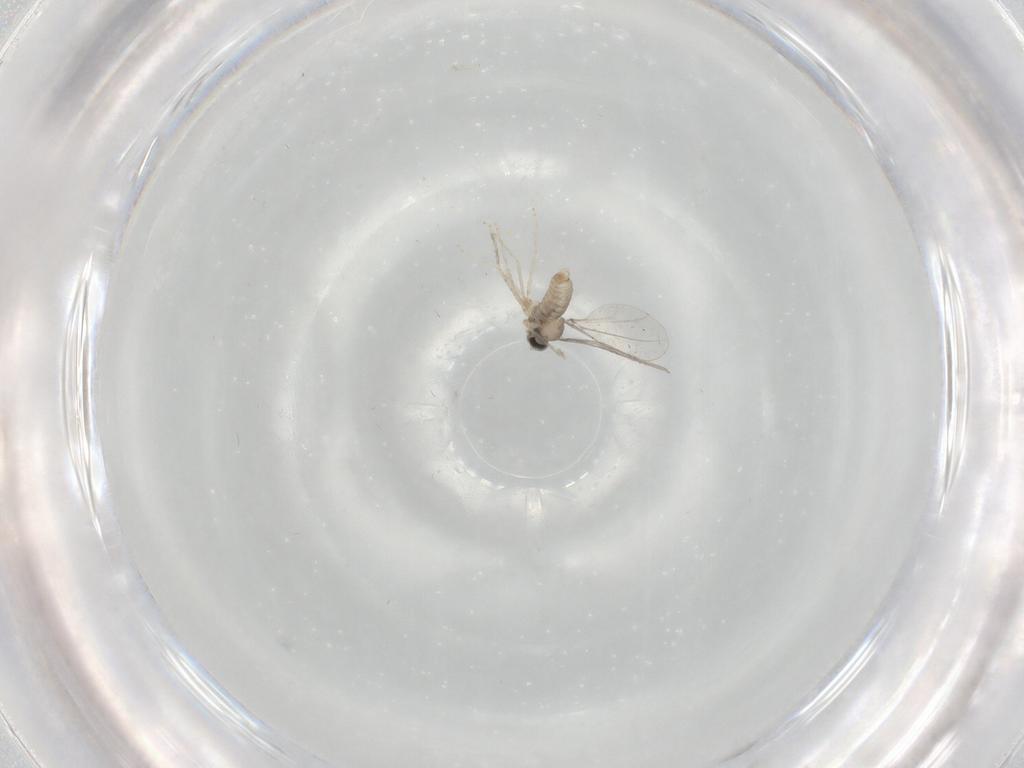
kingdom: Animalia
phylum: Arthropoda
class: Insecta
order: Diptera
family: Cecidomyiidae
